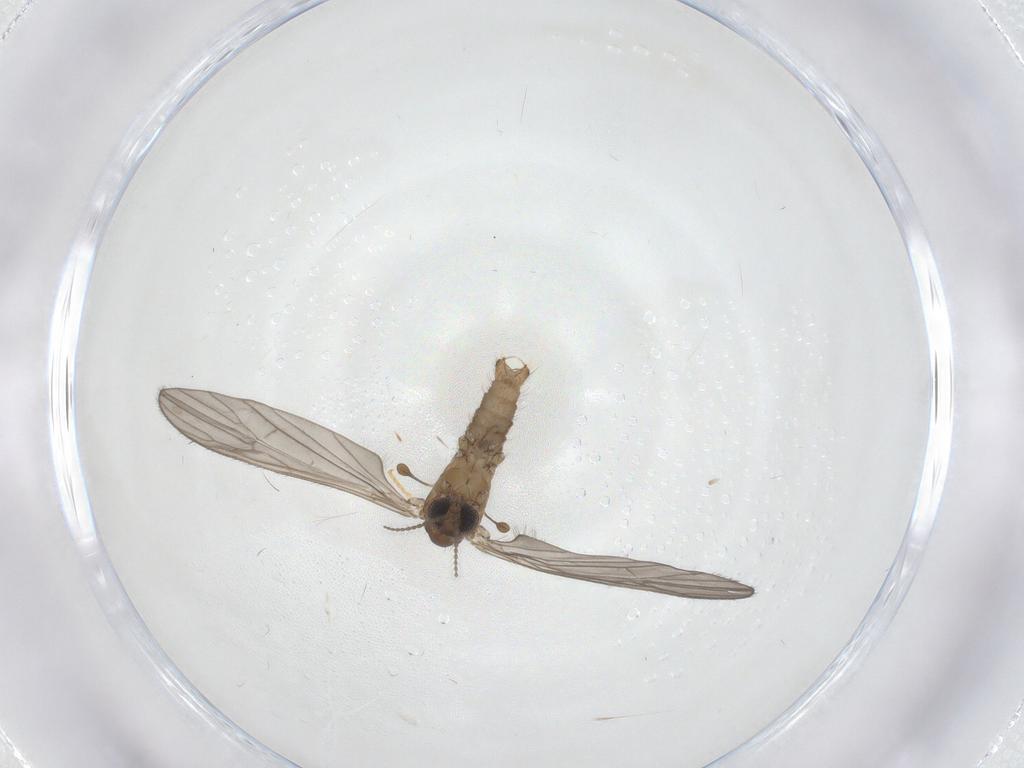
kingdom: Animalia
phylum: Arthropoda
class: Insecta
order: Diptera
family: Limoniidae
